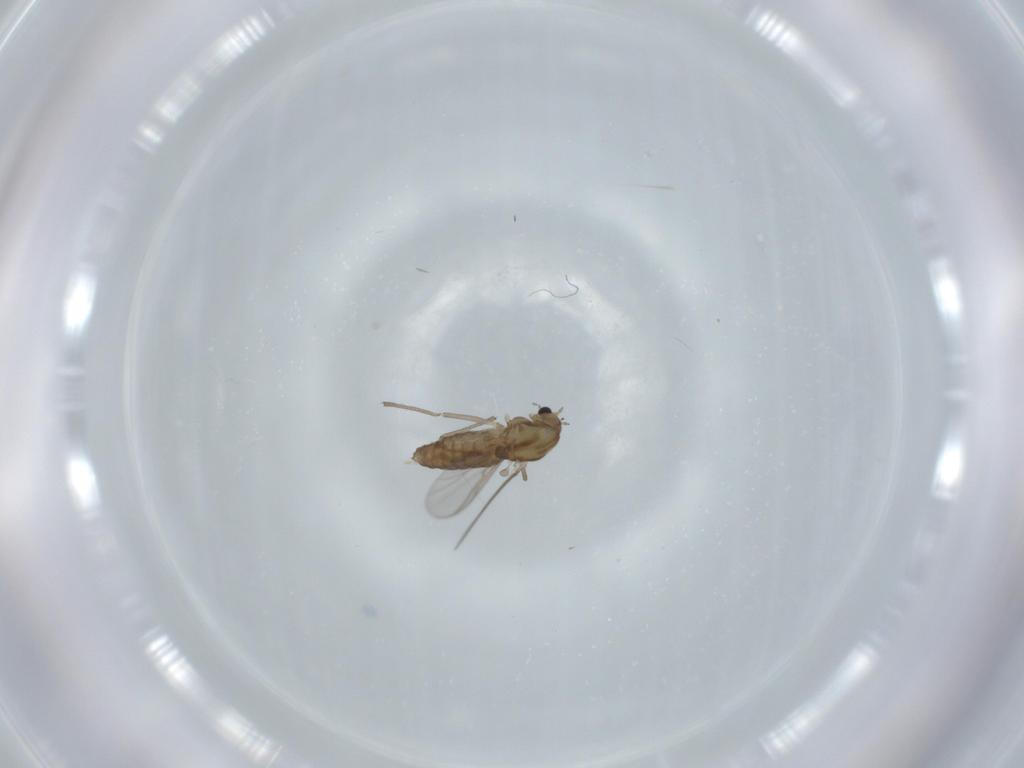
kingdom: Animalia
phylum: Arthropoda
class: Insecta
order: Diptera
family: Chironomidae
